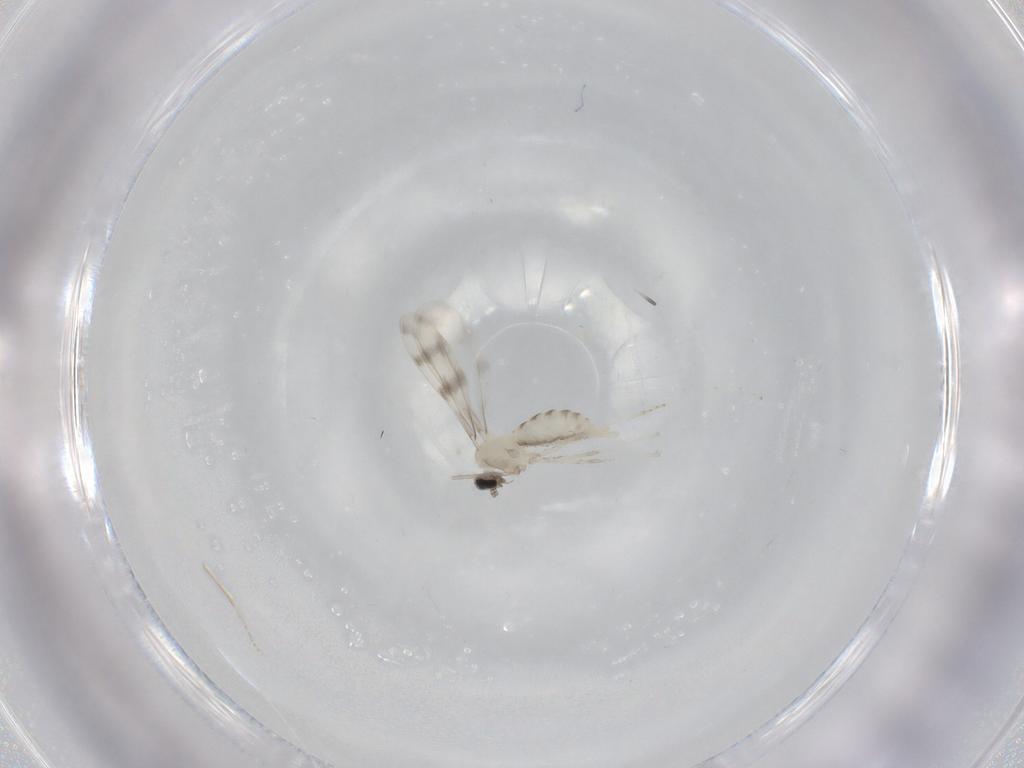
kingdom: Animalia
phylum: Arthropoda
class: Insecta
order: Diptera
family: Cecidomyiidae
